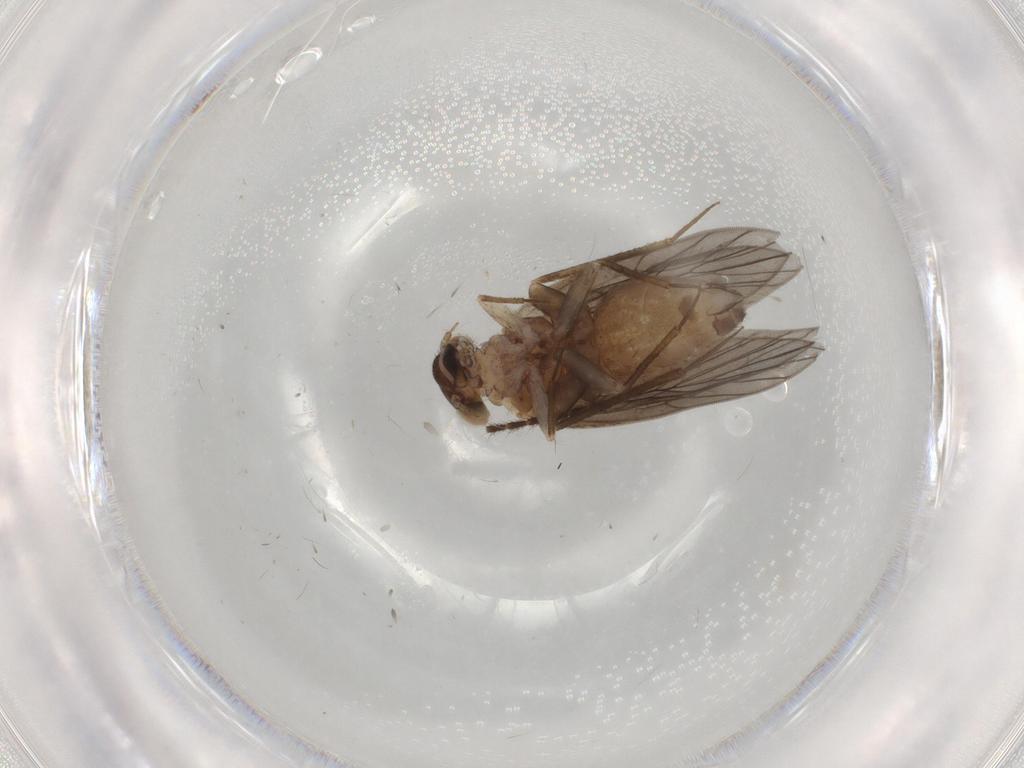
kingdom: Animalia
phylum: Arthropoda
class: Insecta
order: Psocodea
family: Lepidopsocidae
